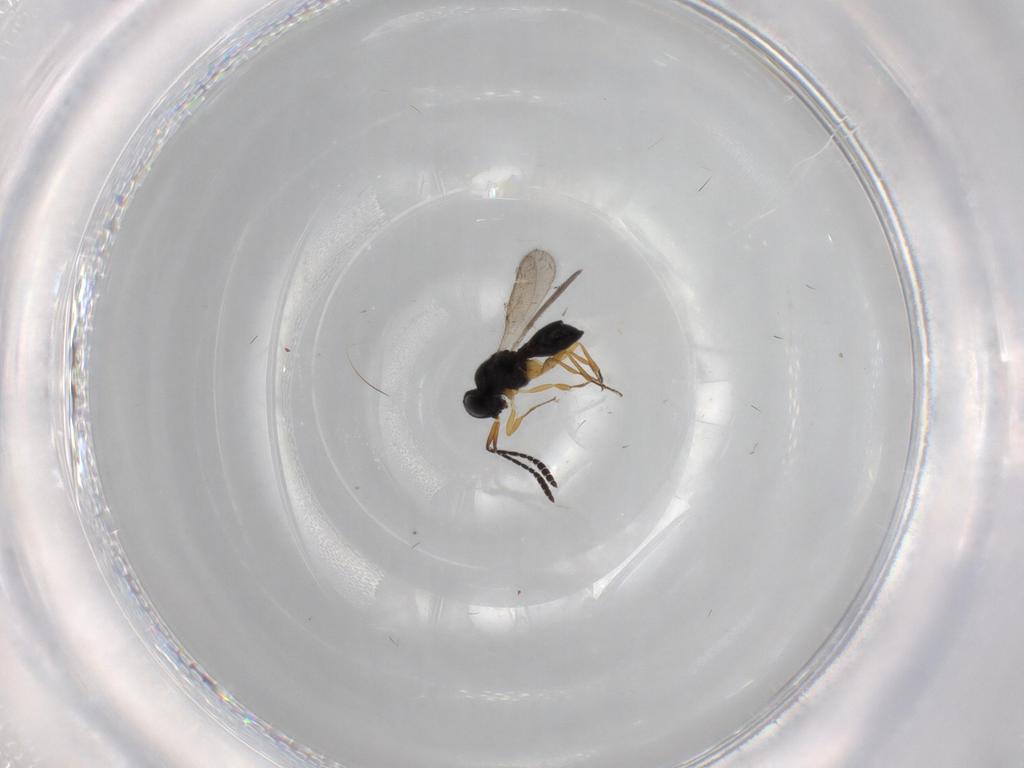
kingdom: Animalia
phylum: Arthropoda
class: Insecta
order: Hymenoptera
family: Scelionidae
